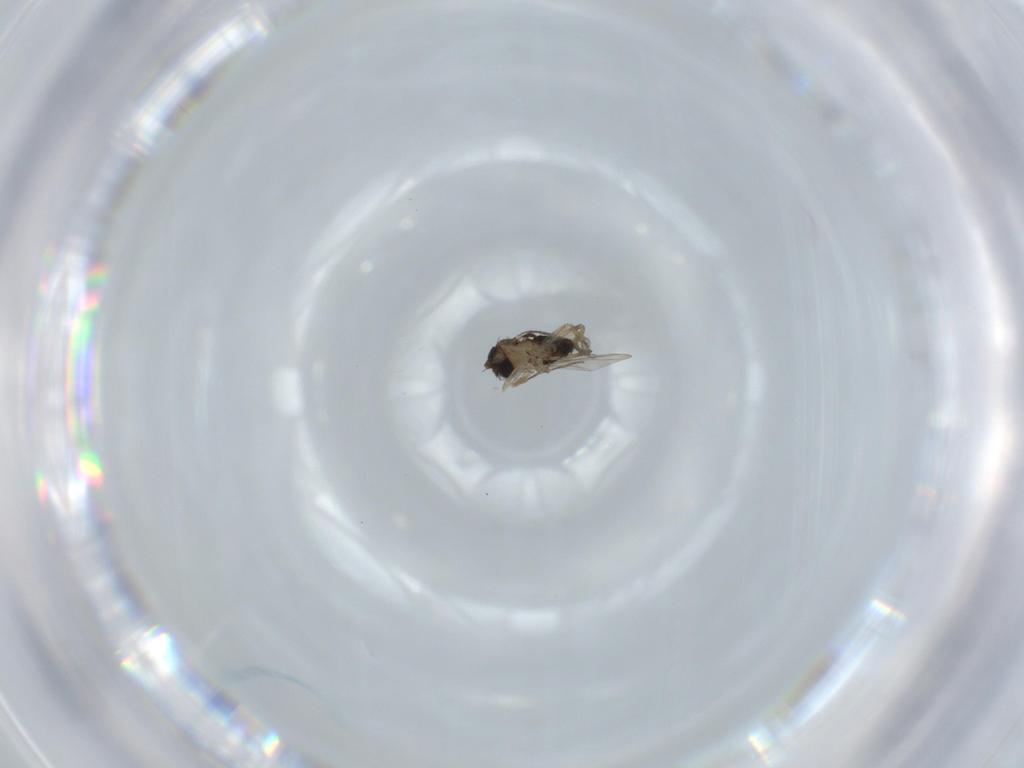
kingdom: Animalia
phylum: Arthropoda
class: Insecta
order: Diptera
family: Phoridae
